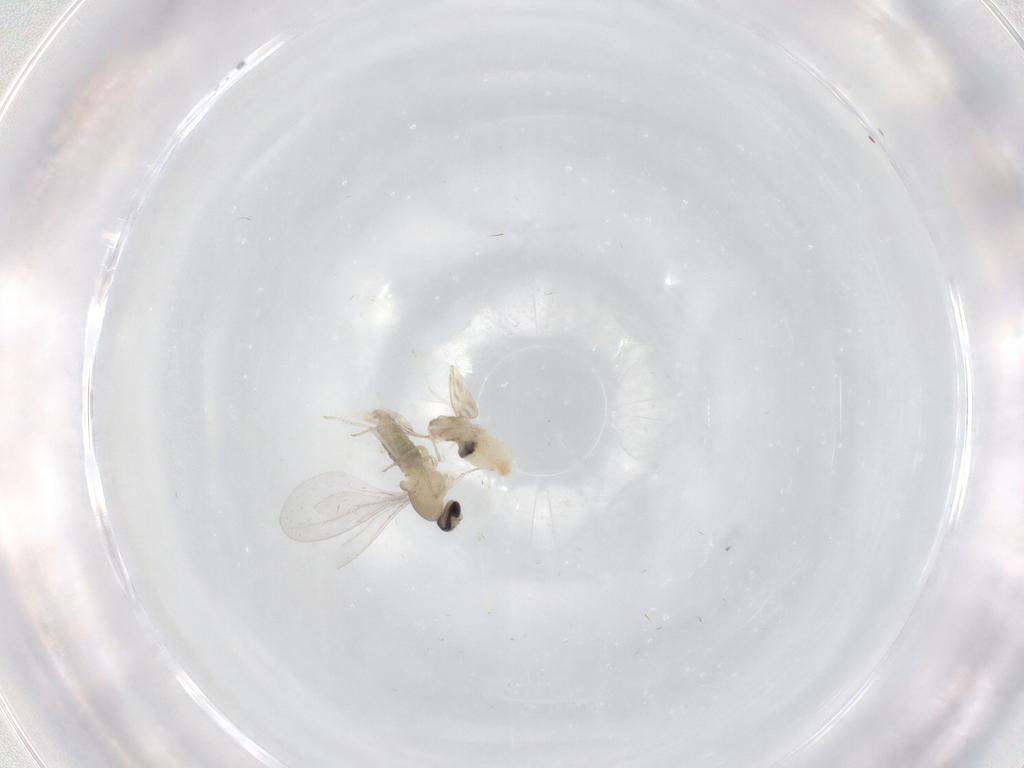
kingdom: Animalia
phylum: Arthropoda
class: Insecta
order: Diptera
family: Cecidomyiidae
